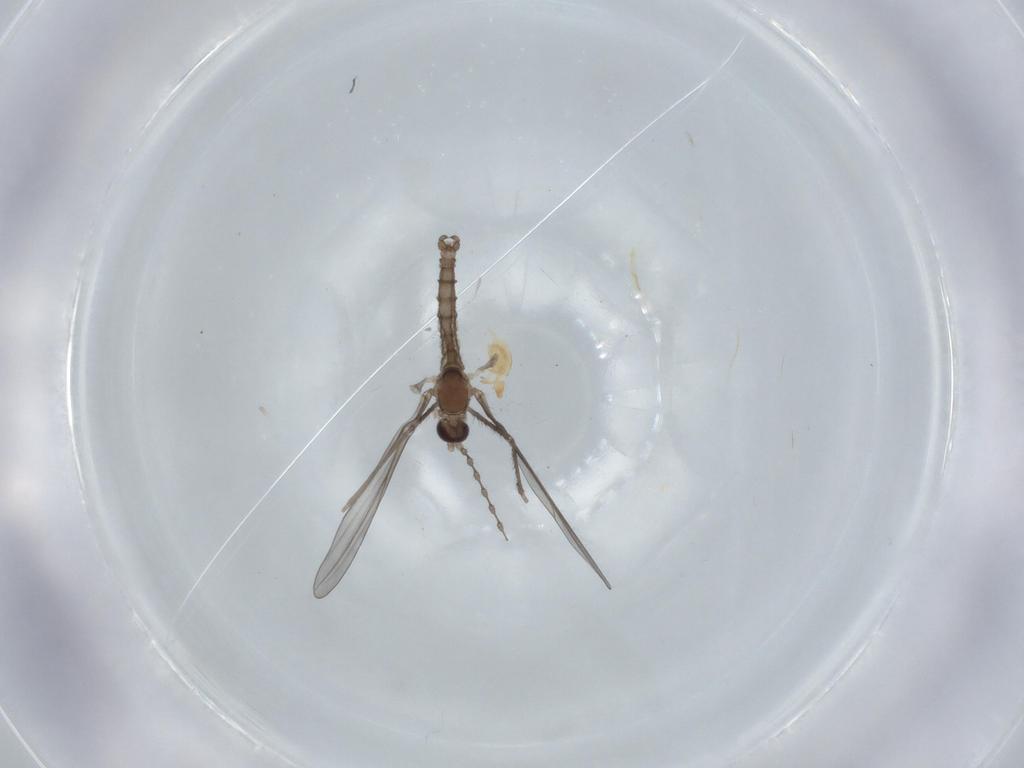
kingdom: Animalia
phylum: Arthropoda
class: Insecta
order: Diptera
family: Cecidomyiidae
